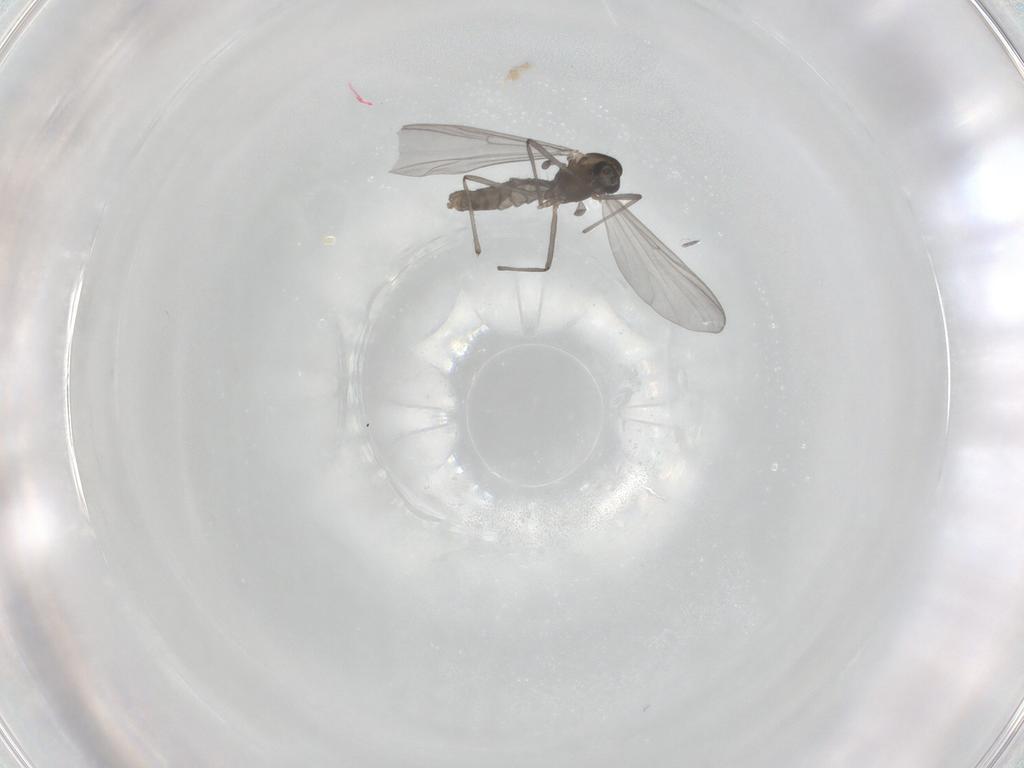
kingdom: Animalia
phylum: Arthropoda
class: Insecta
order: Diptera
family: Chironomidae
